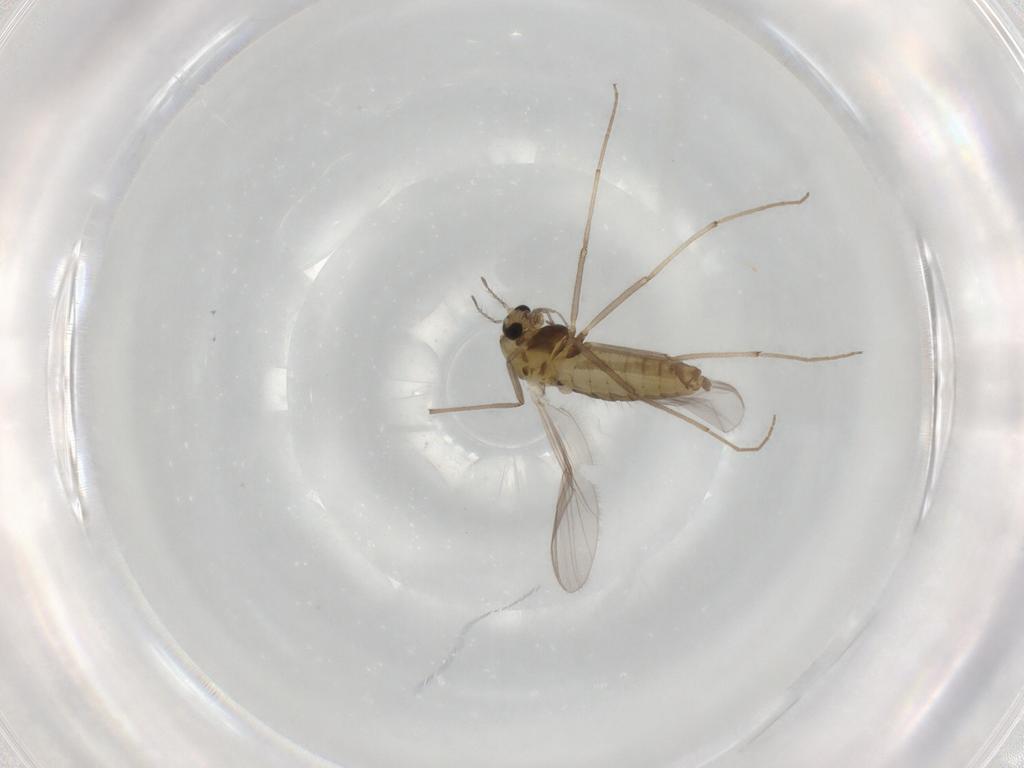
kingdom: Animalia
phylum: Arthropoda
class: Insecta
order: Diptera
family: Chironomidae
